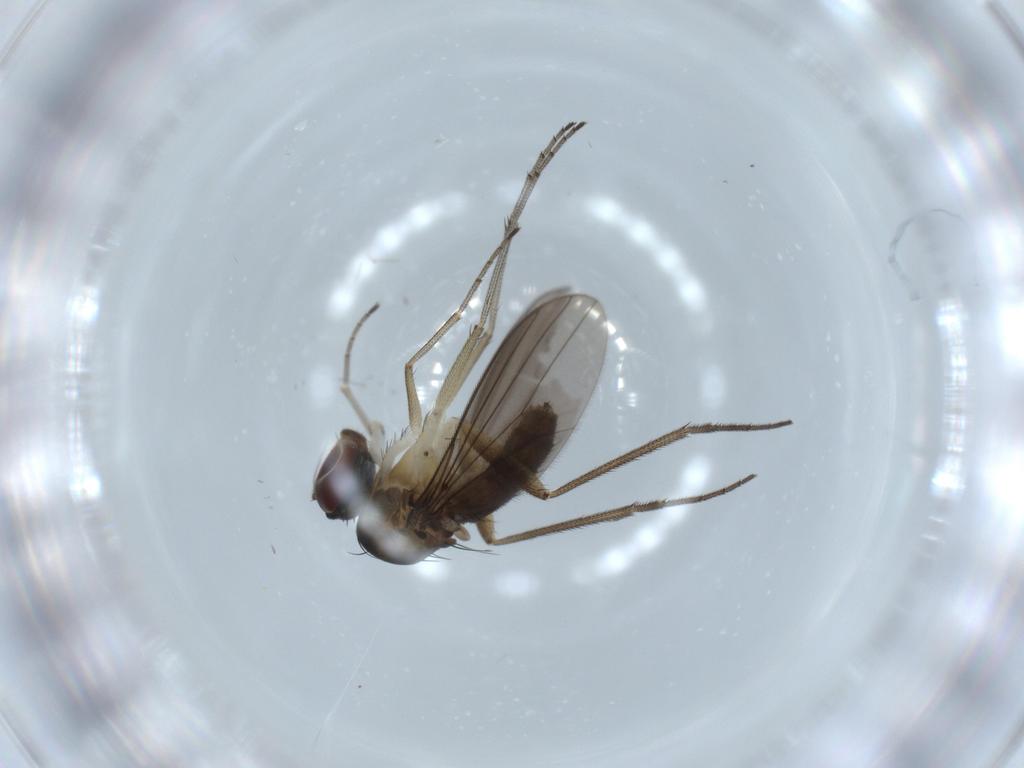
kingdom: Animalia
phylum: Arthropoda
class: Insecta
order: Diptera
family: Dolichopodidae
